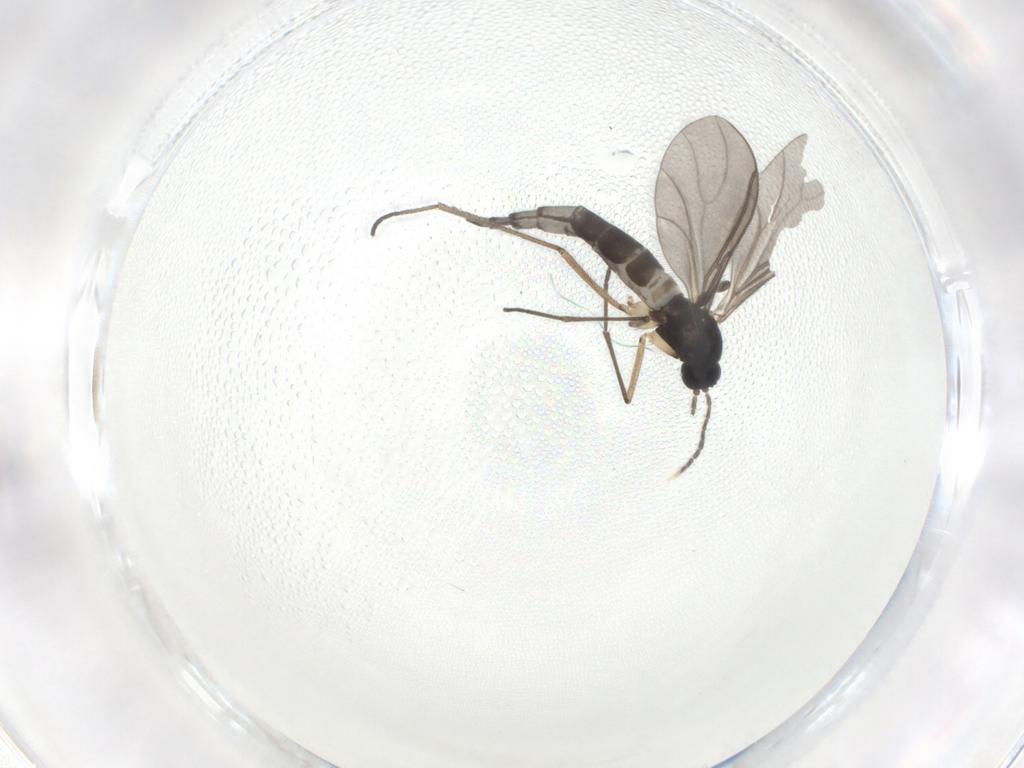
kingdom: Animalia
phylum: Arthropoda
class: Insecta
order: Diptera
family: Sciaridae
